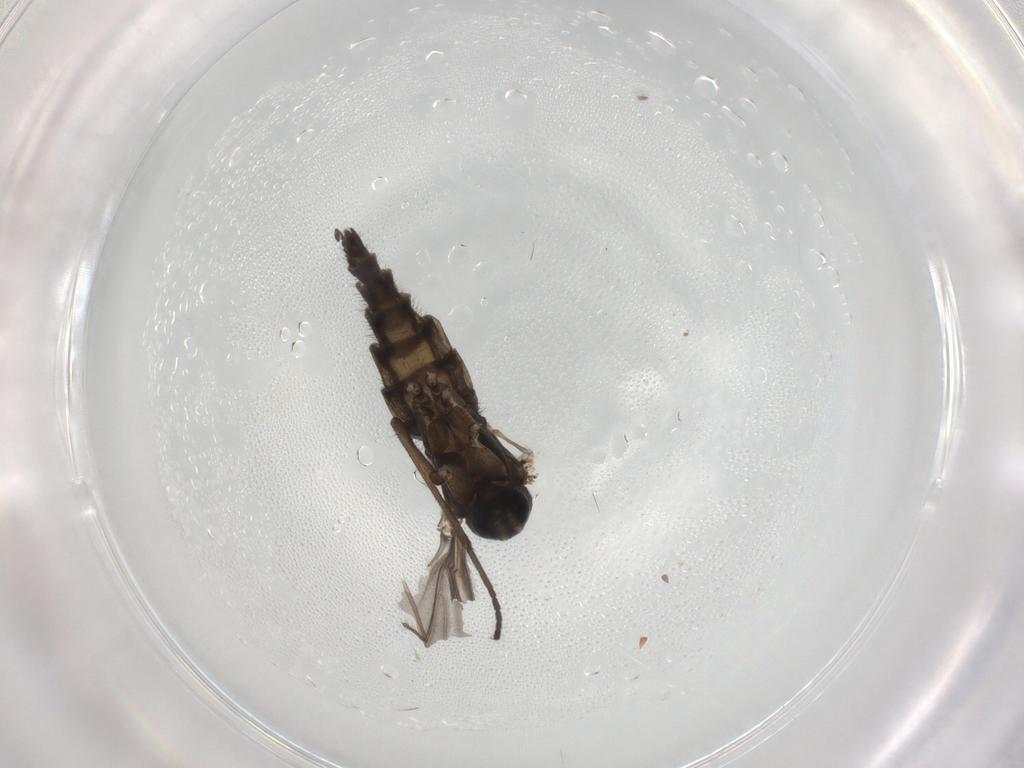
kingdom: Animalia
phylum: Arthropoda
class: Insecta
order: Diptera
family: Sciaridae
